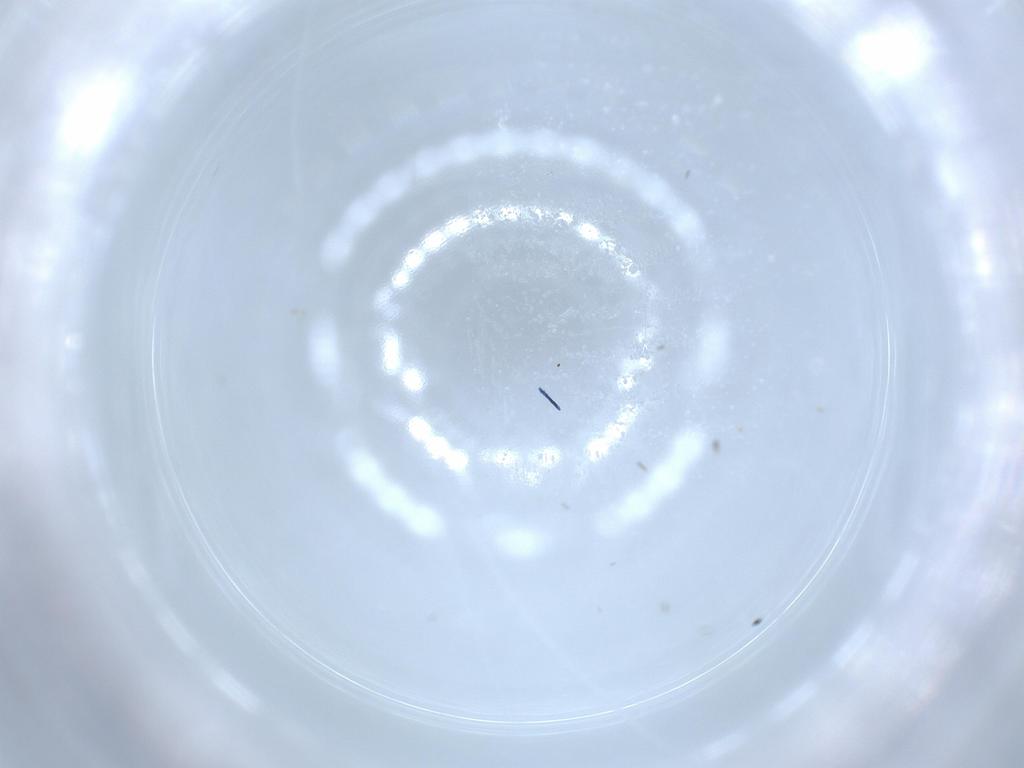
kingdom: Animalia
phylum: Arthropoda
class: Insecta
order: Hymenoptera
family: Mymaridae
